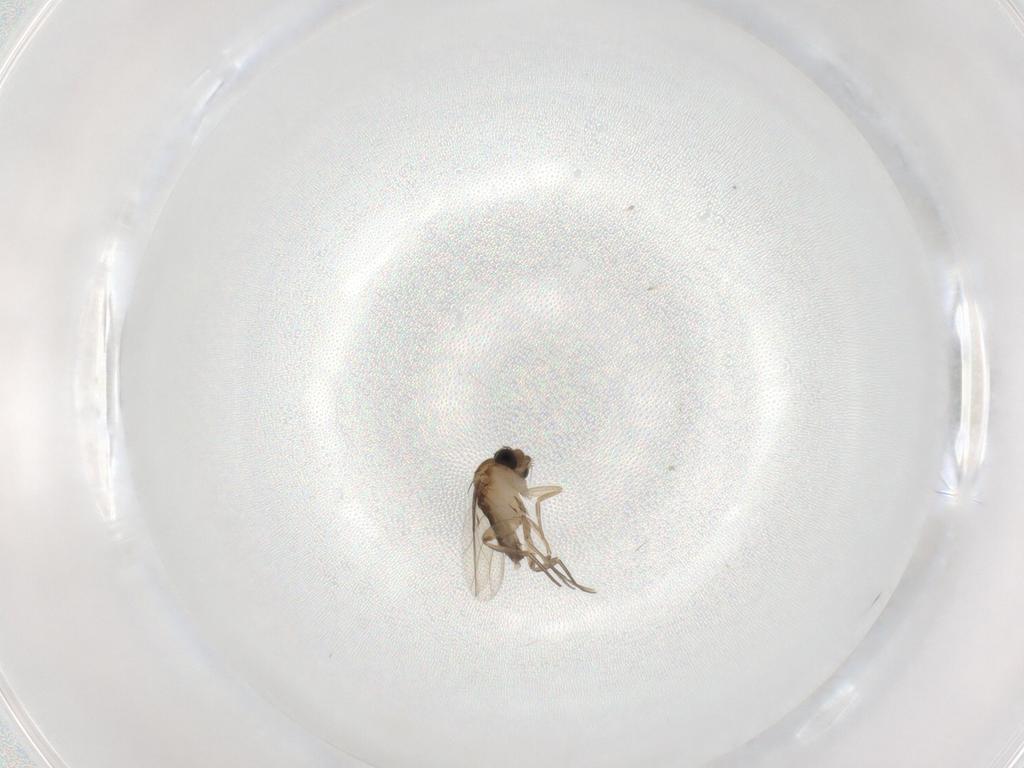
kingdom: Animalia
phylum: Arthropoda
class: Insecta
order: Diptera
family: Phoridae
